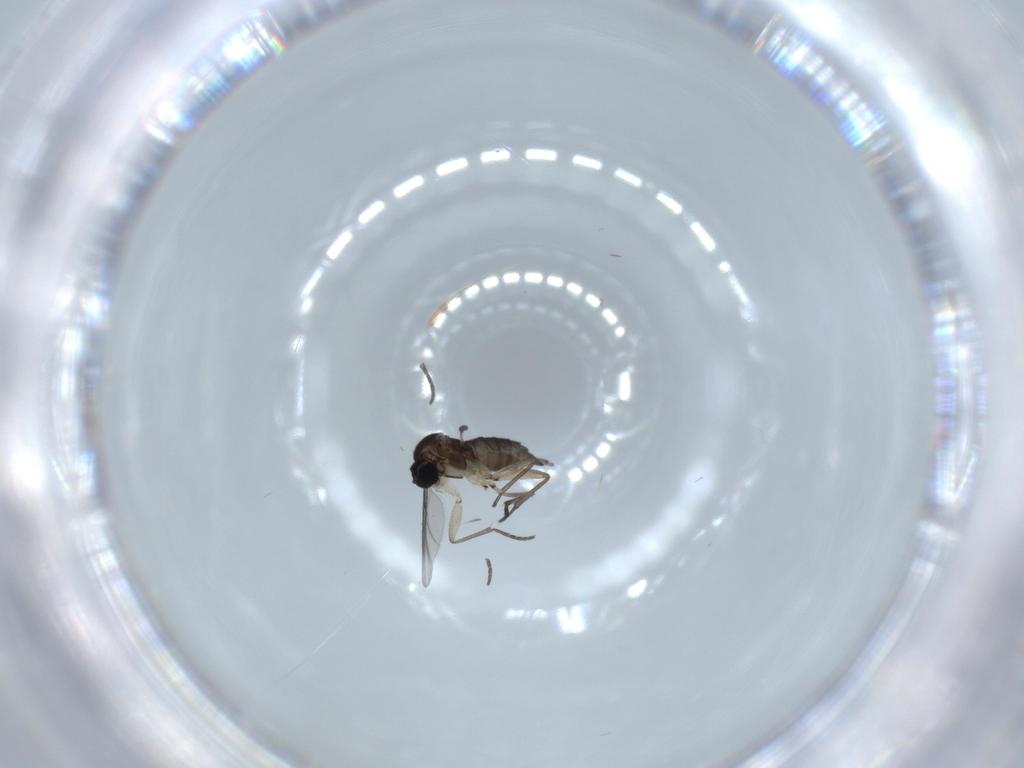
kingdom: Animalia
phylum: Arthropoda
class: Insecta
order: Diptera
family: Sciaridae
